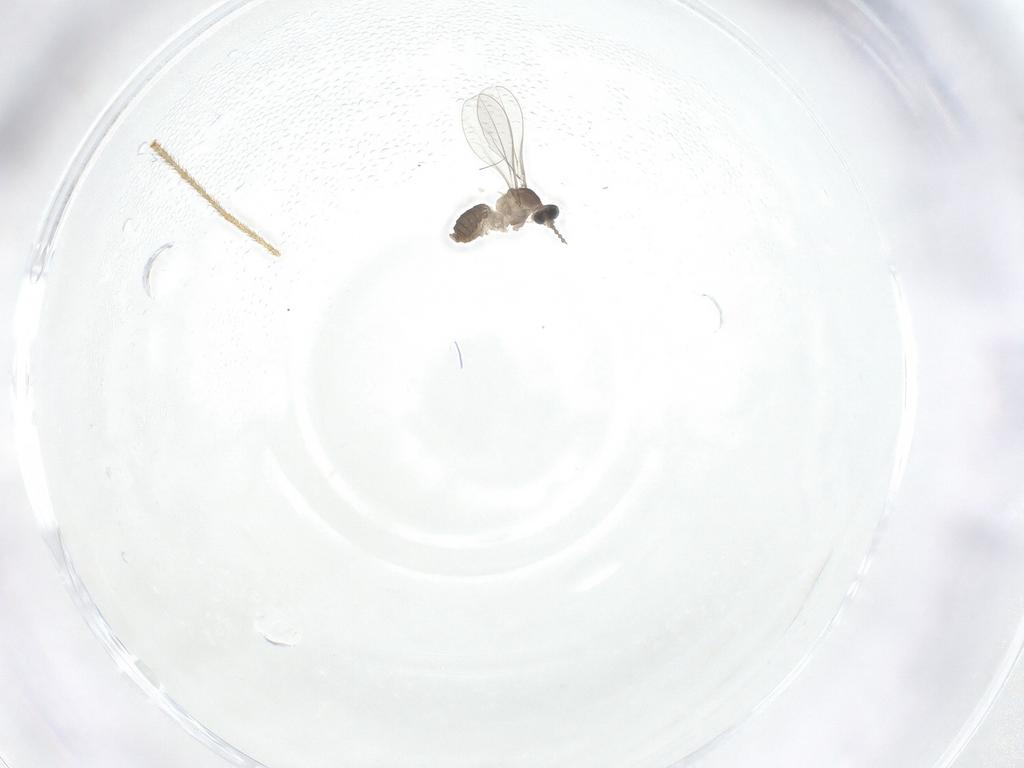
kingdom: Animalia
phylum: Arthropoda
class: Insecta
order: Diptera
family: Limoniidae
